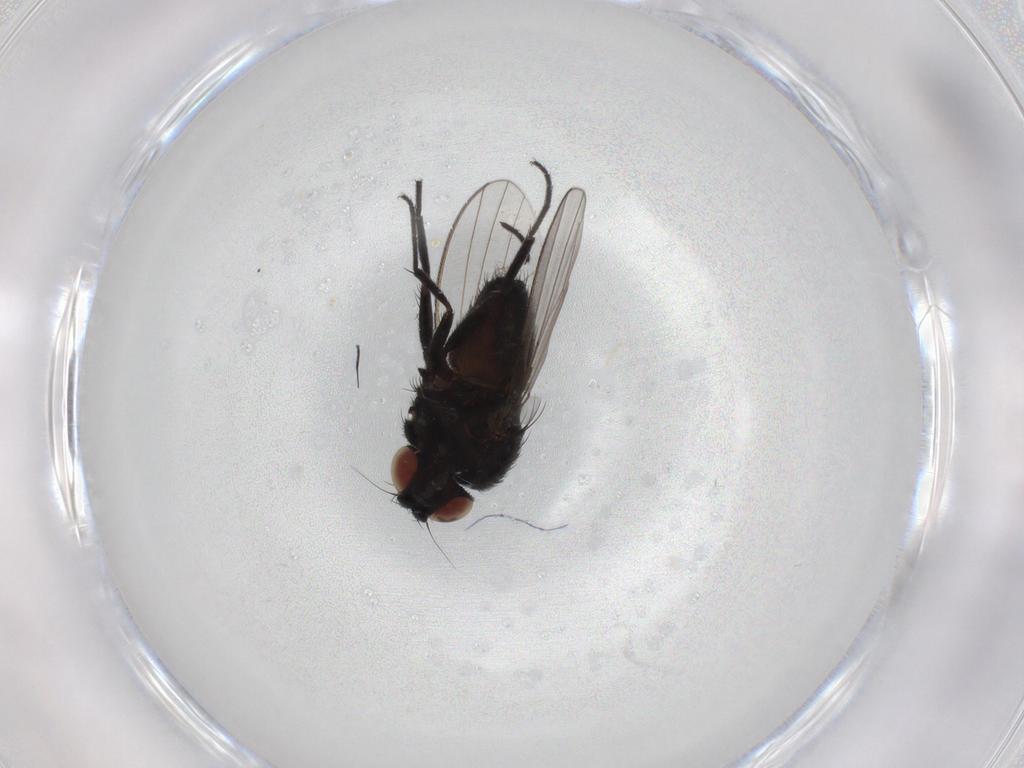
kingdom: Animalia
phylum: Arthropoda
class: Insecta
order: Diptera
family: Milichiidae
